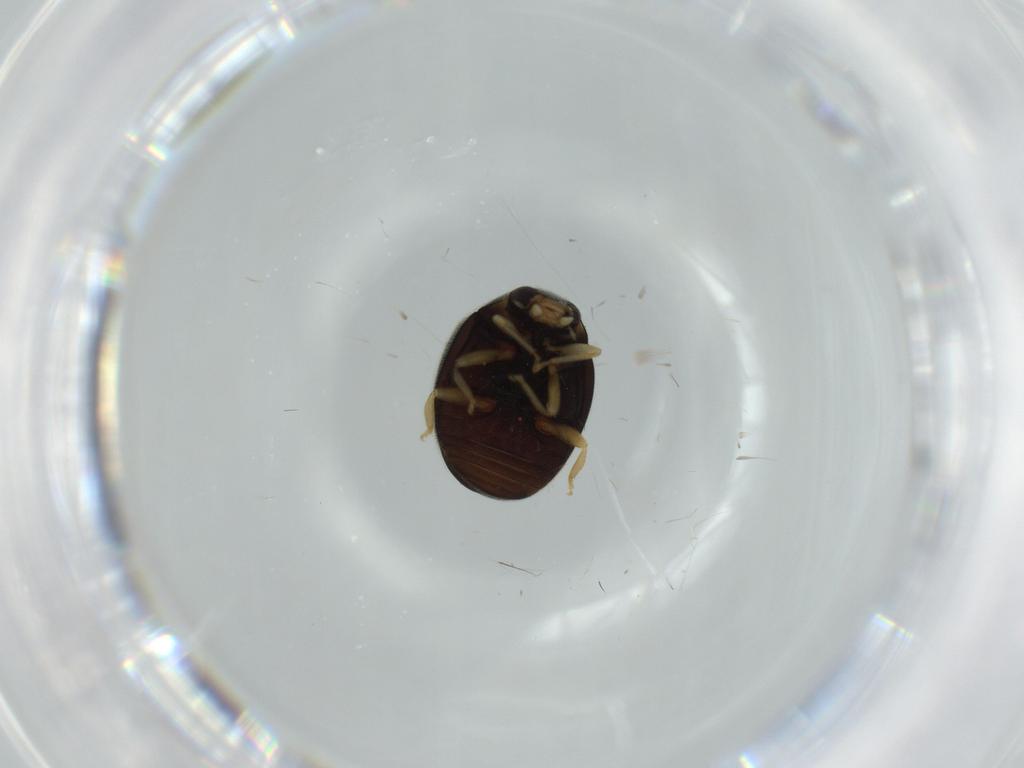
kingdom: Animalia
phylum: Arthropoda
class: Insecta
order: Coleoptera
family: Coccinellidae
